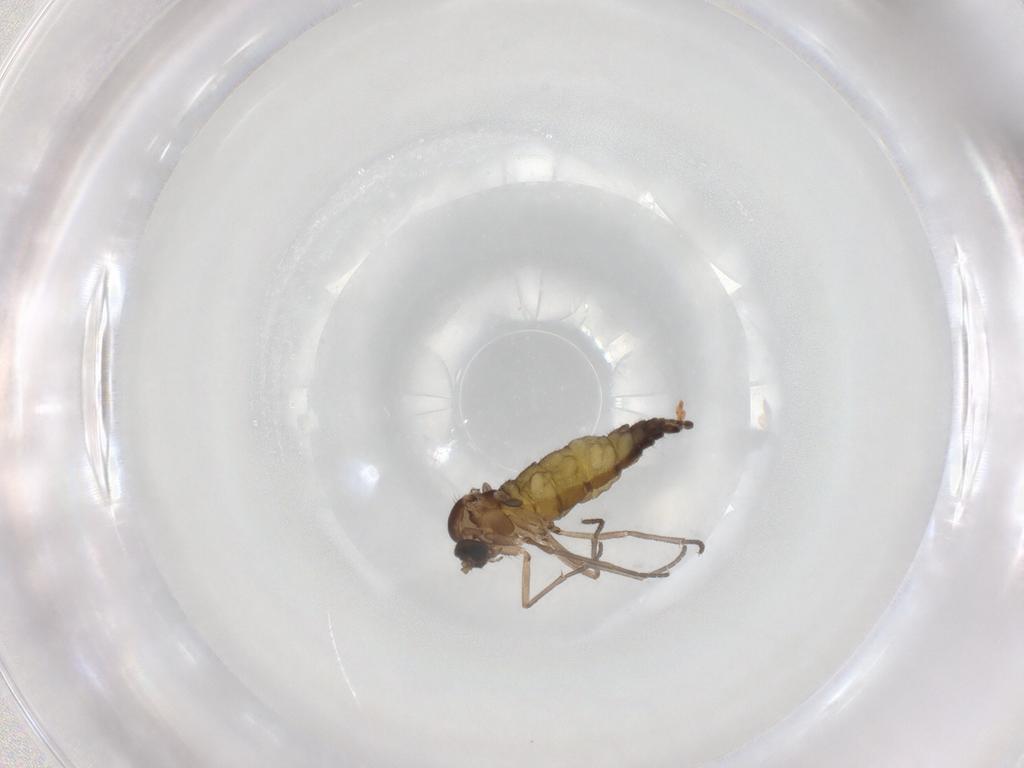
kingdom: Animalia
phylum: Arthropoda
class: Insecta
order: Diptera
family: Sciaridae
